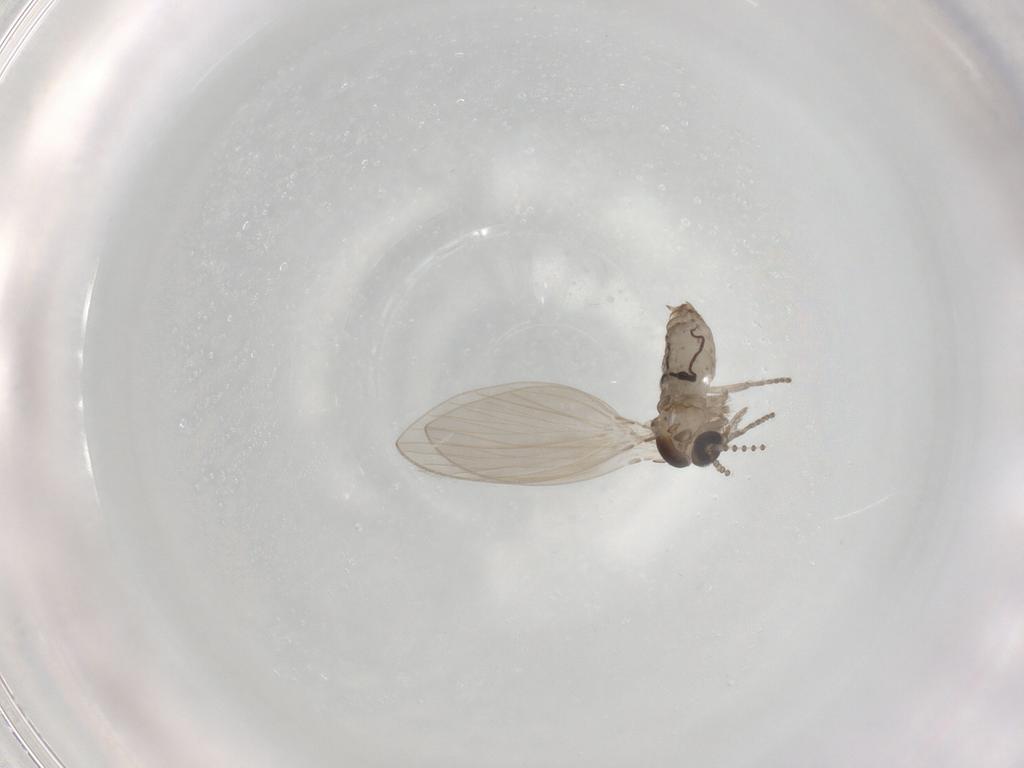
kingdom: Animalia
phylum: Arthropoda
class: Insecta
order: Diptera
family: Psychodidae
